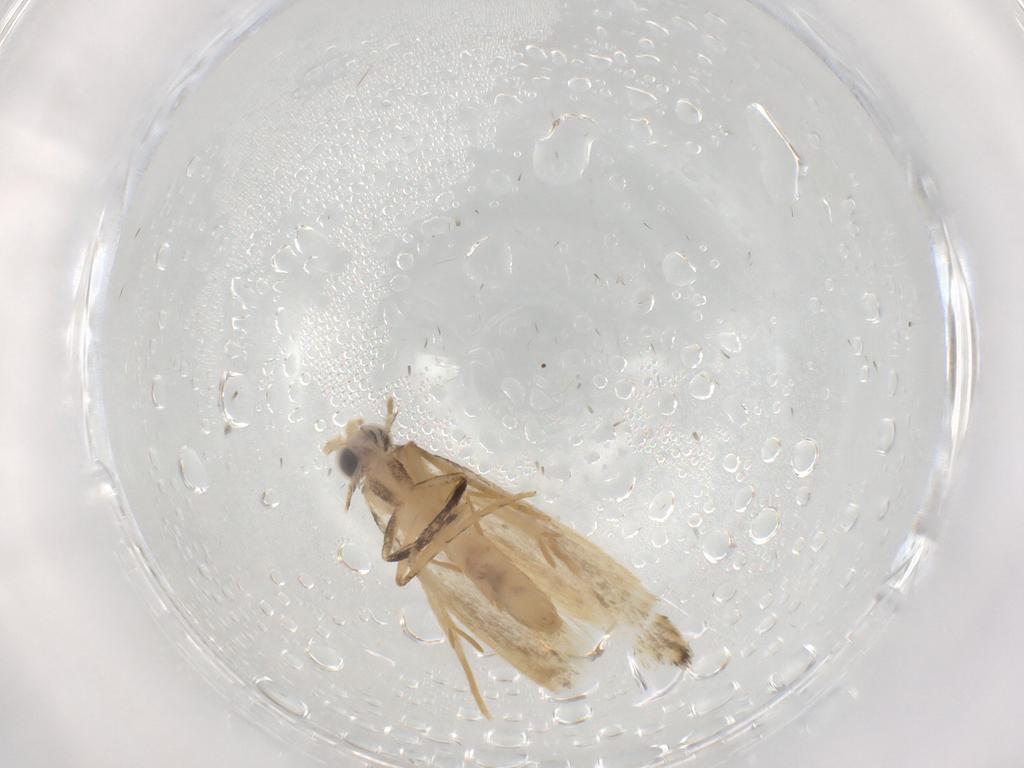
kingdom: Animalia
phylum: Arthropoda
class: Insecta
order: Lepidoptera
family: Nepticulidae
